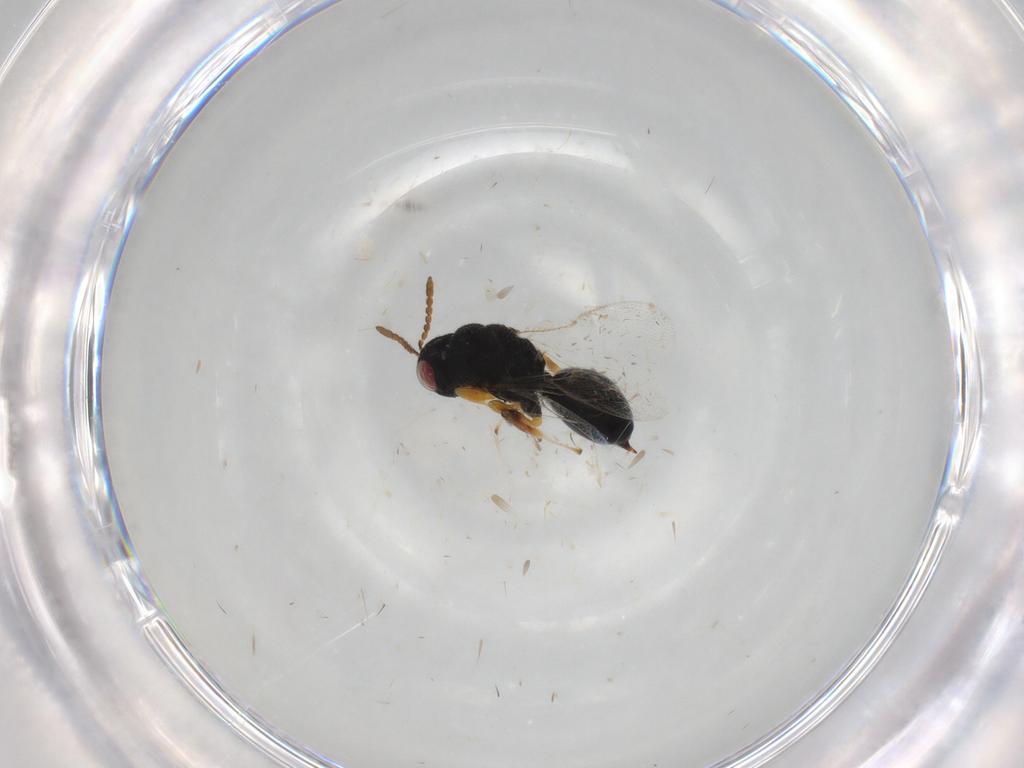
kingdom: Animalia
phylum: Arthropoda
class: Insecta
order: Hymenoptera
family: Eurytomidae
